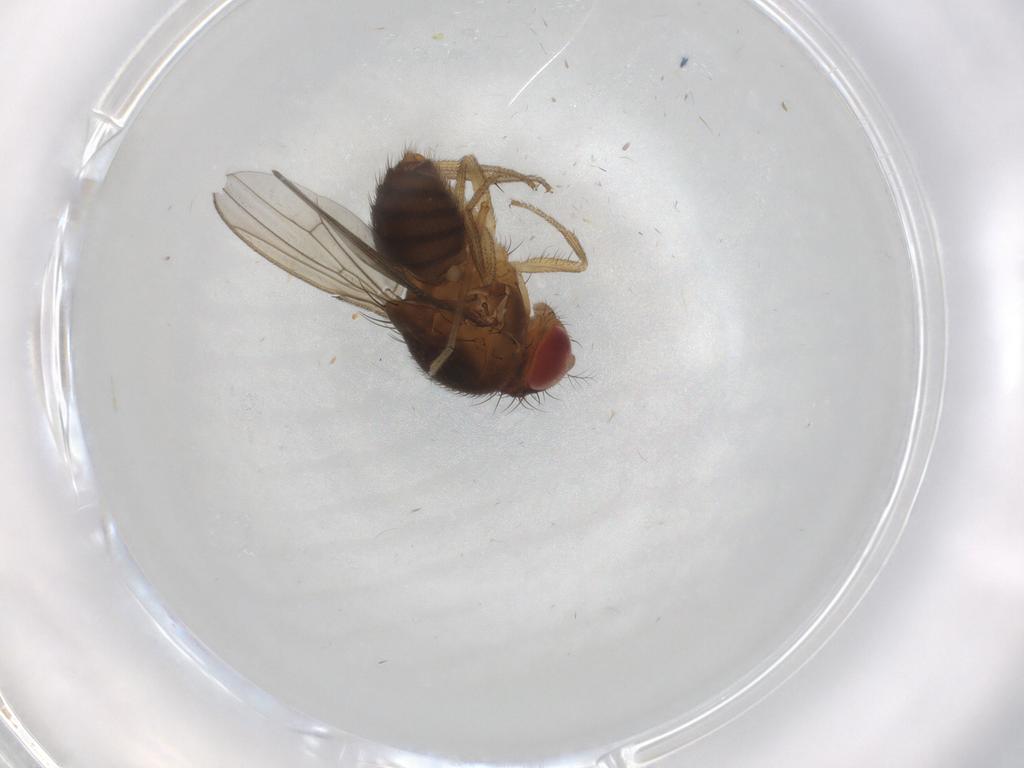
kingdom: Animalia
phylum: Arthropoda
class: Insecta
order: Diptera
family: Drosophilidae
